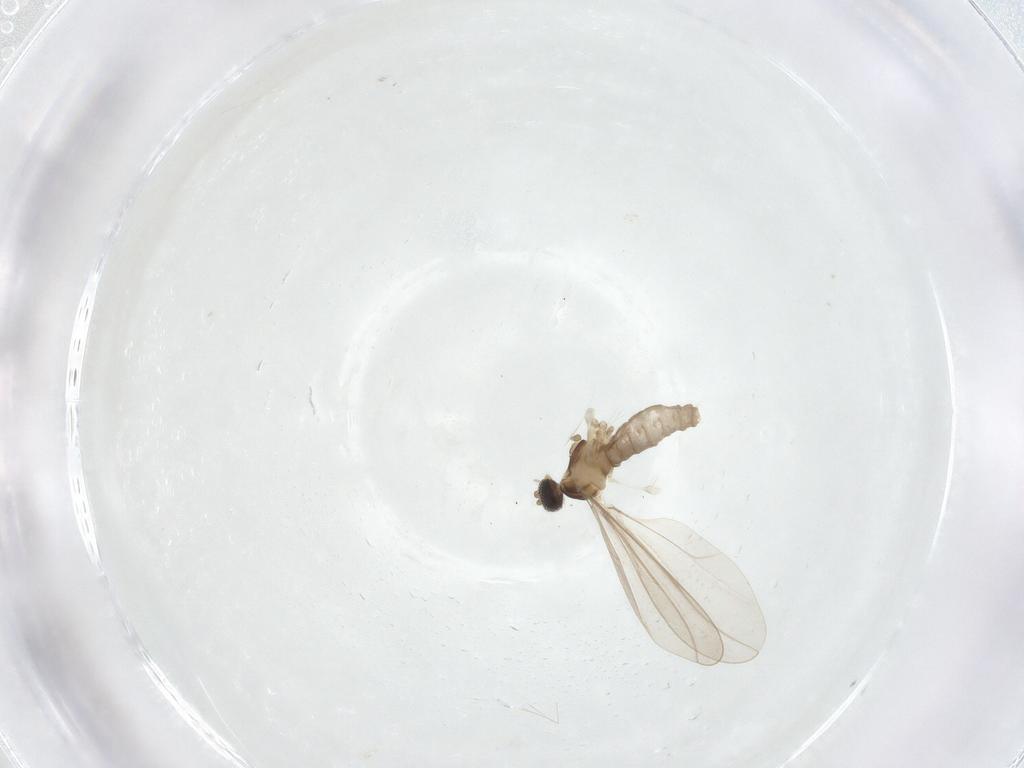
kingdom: Animalia
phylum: Arthropoda
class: Insecta
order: Diptera
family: Cecidomyiidae
